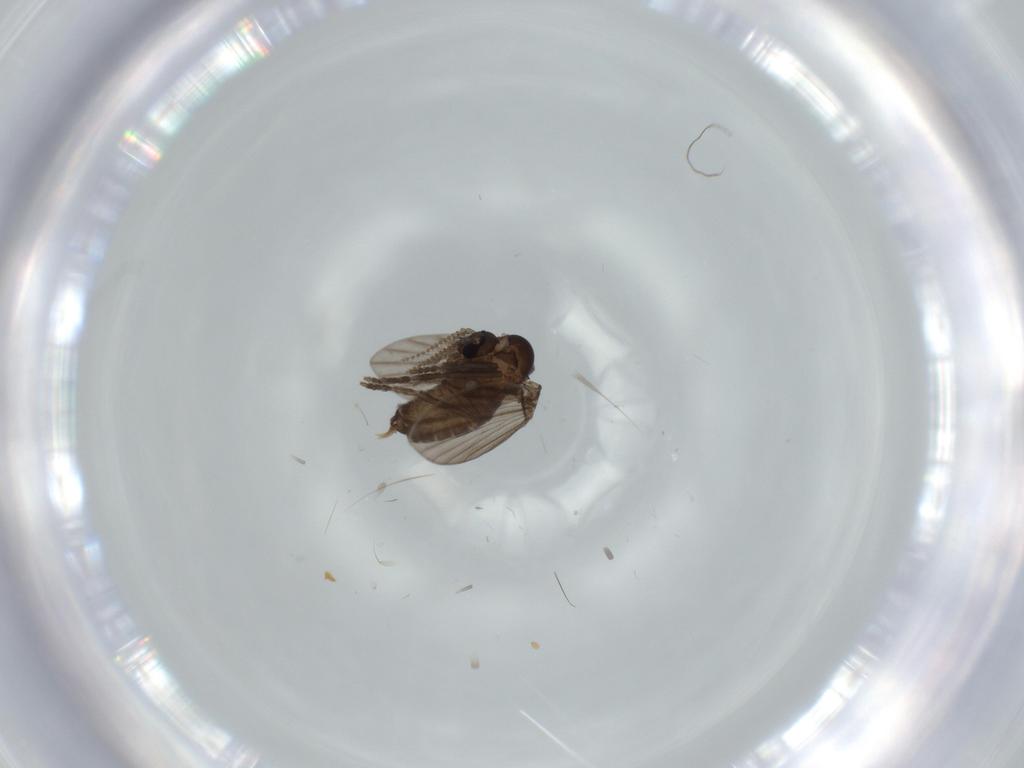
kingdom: Animalia
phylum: Arthropoda
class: Insecta
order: Diptera
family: Psychodidae
